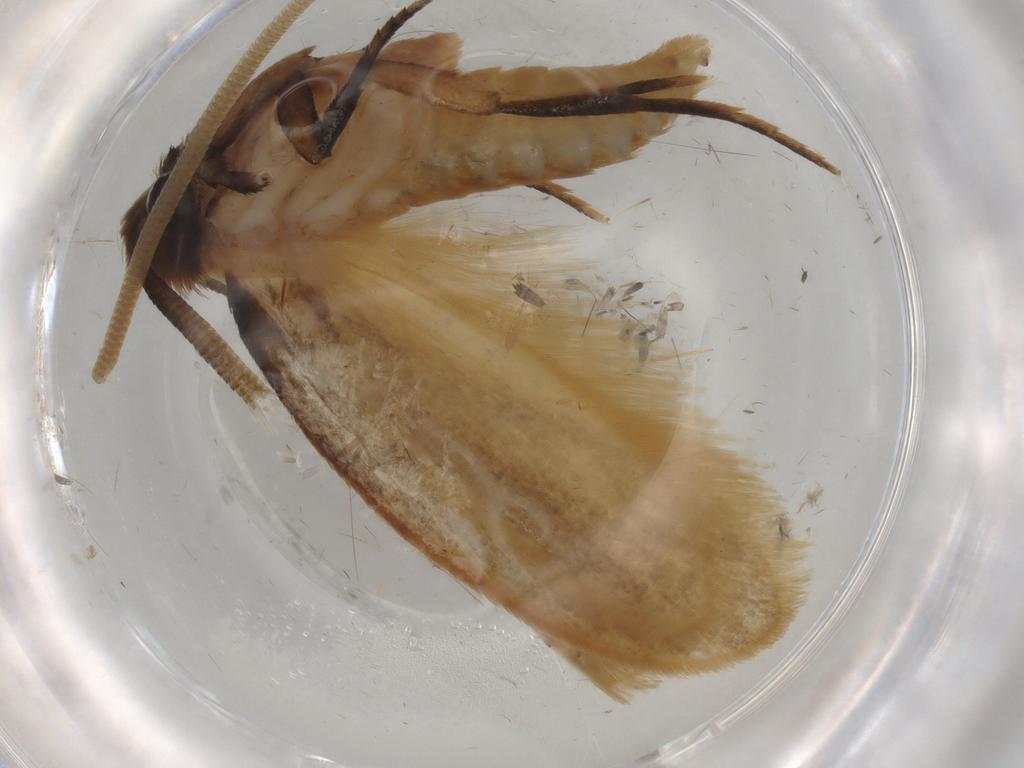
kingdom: Animalia
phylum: Arthropoda
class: Insecta
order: Lepidoptera
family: Tineidae
